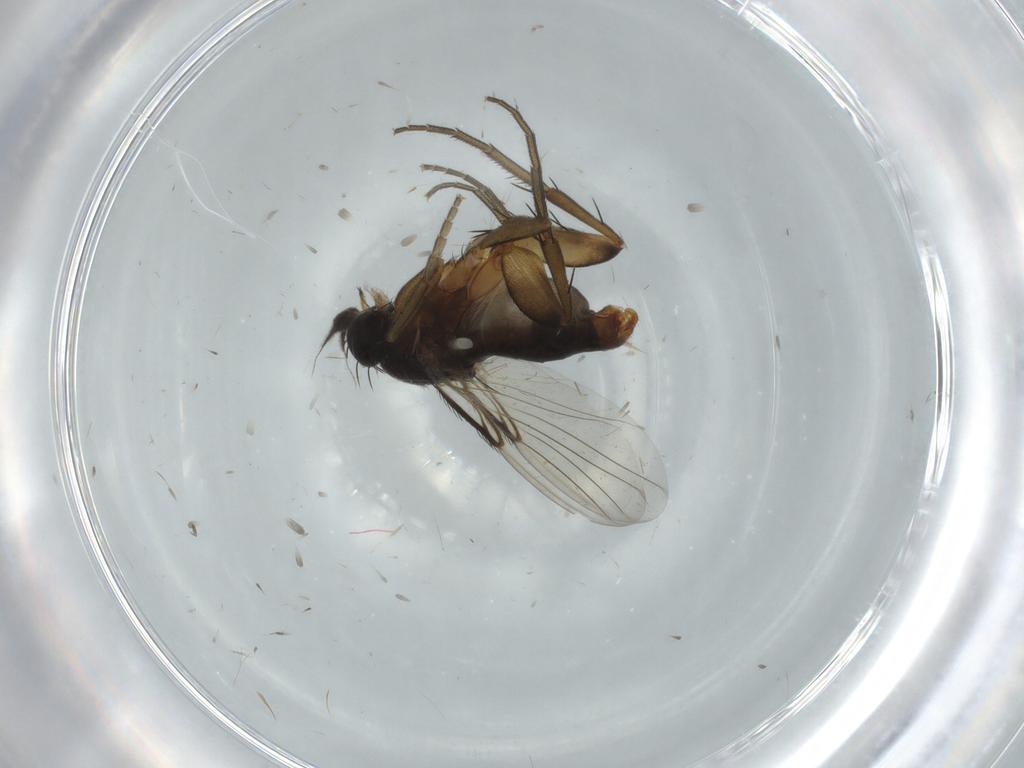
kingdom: Animalia
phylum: Arthropoda
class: Insecta
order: Diptera
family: Phoridae
